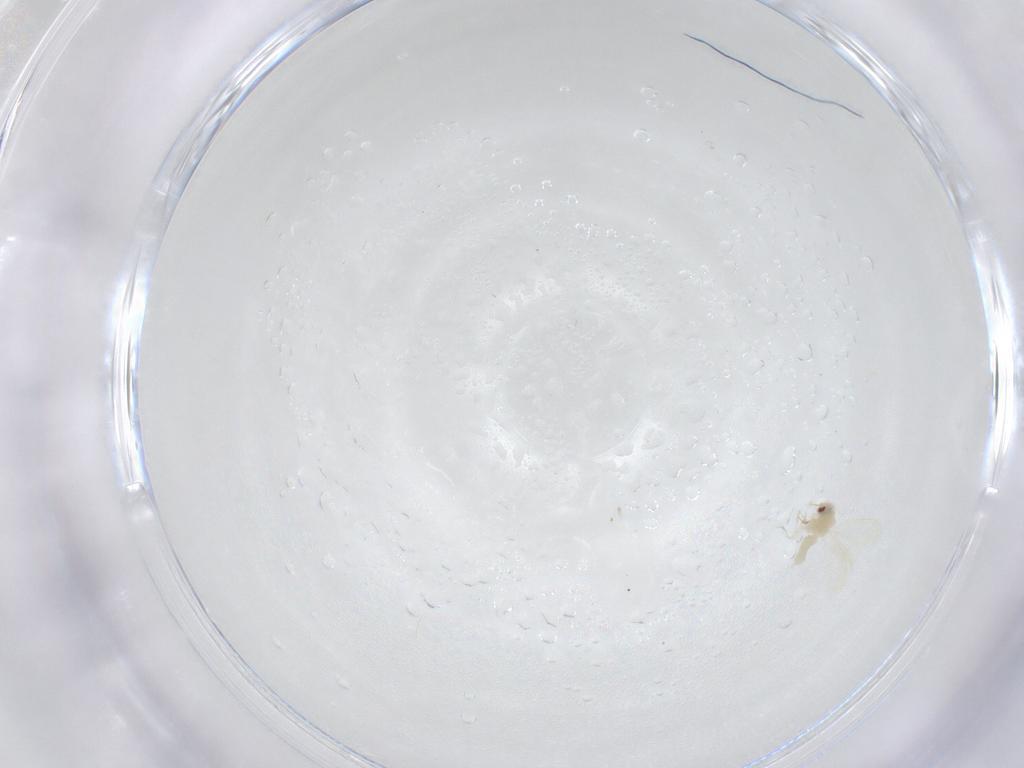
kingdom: Animalia
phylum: Arthropoda
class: Insecta
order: Hemiptera
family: Aleyrodidae
